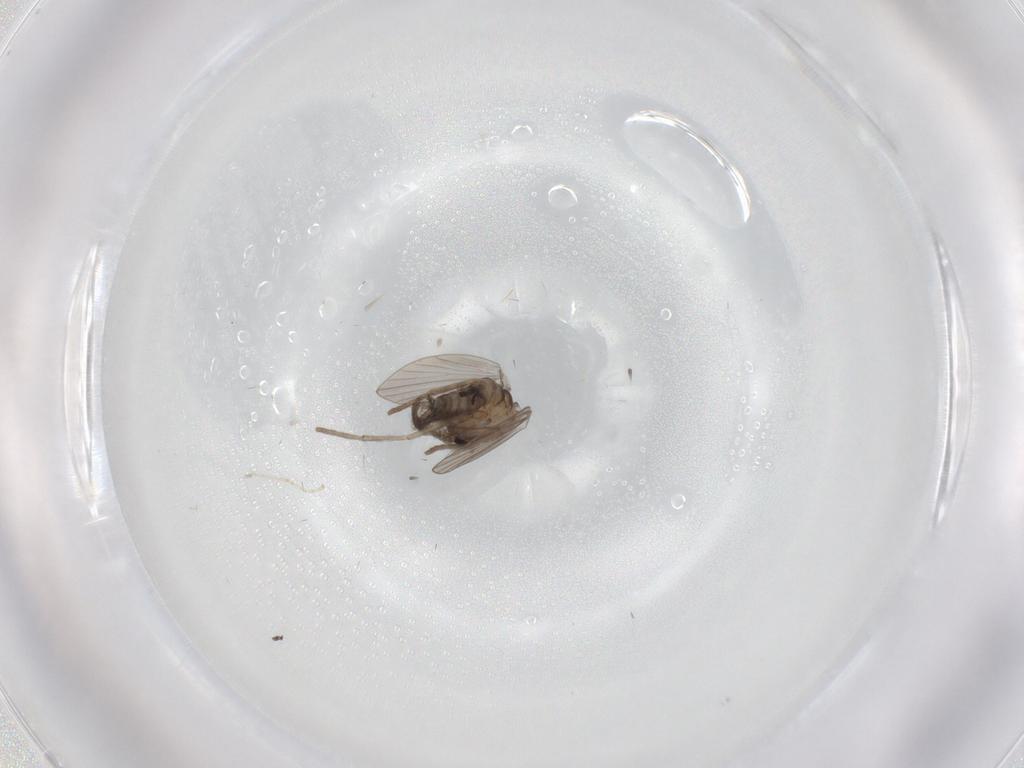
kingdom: Animalia
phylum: Arthropoda
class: Insecta
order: Diptera
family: Psychodidae
